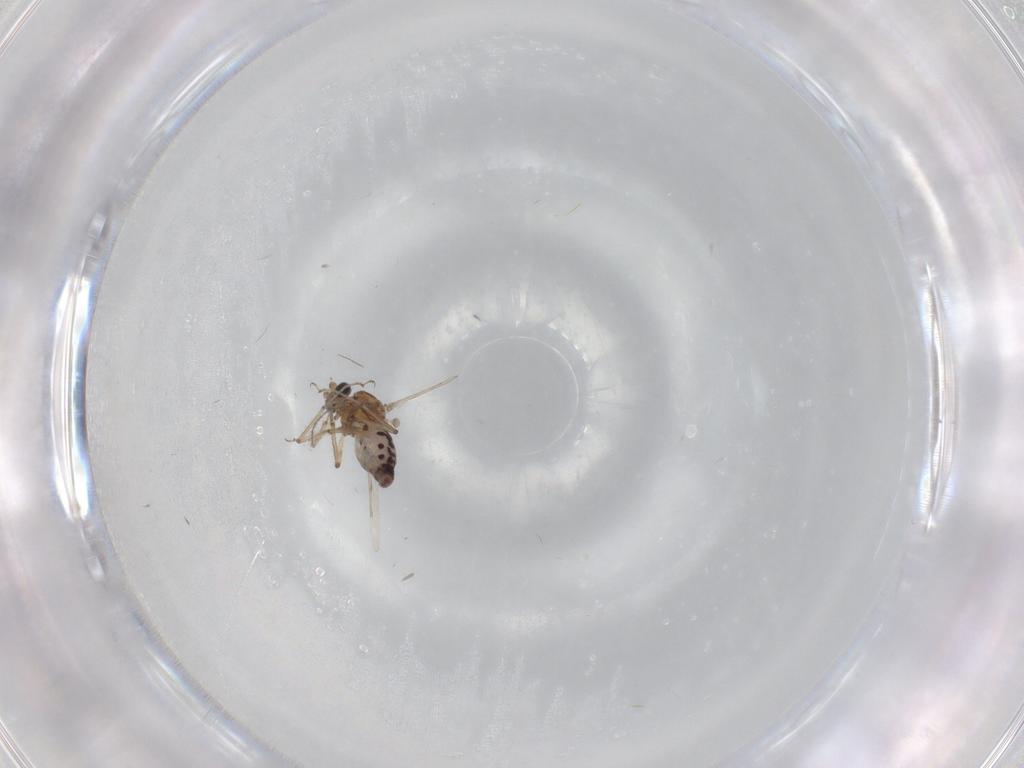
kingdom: Animalia
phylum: Arthropoda
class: Insecta
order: Diptera
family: Ceratopogonidae
